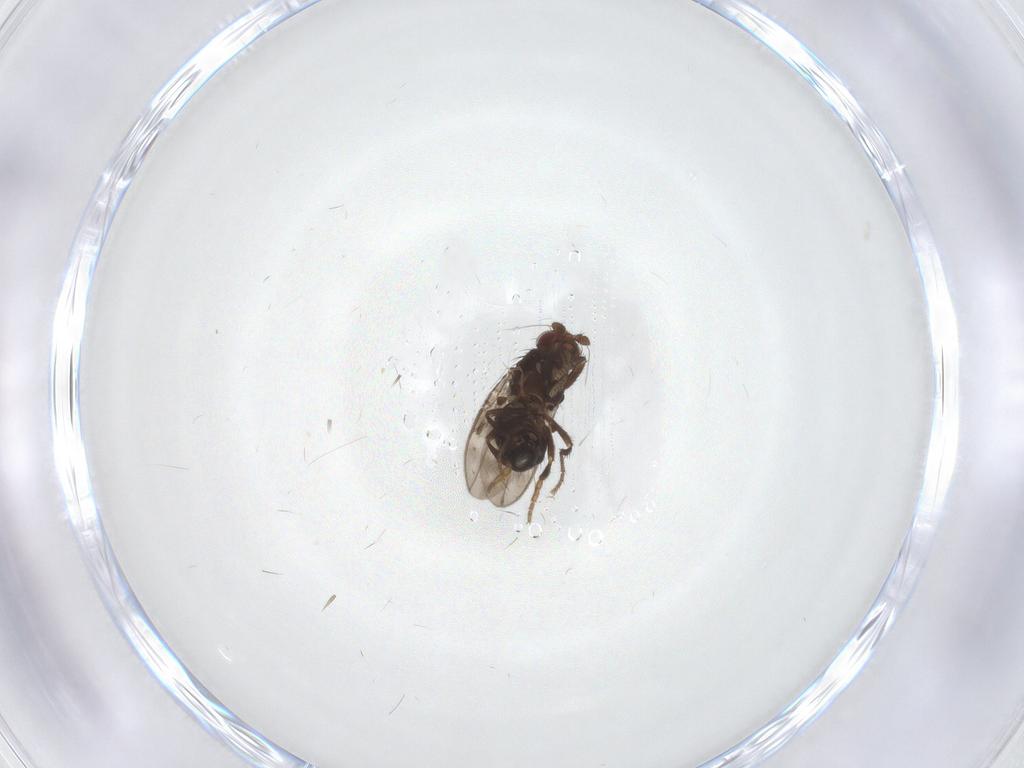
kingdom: Animalia
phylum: Arthropoda
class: Insecta
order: Diptera
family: Sphaeroceridae
